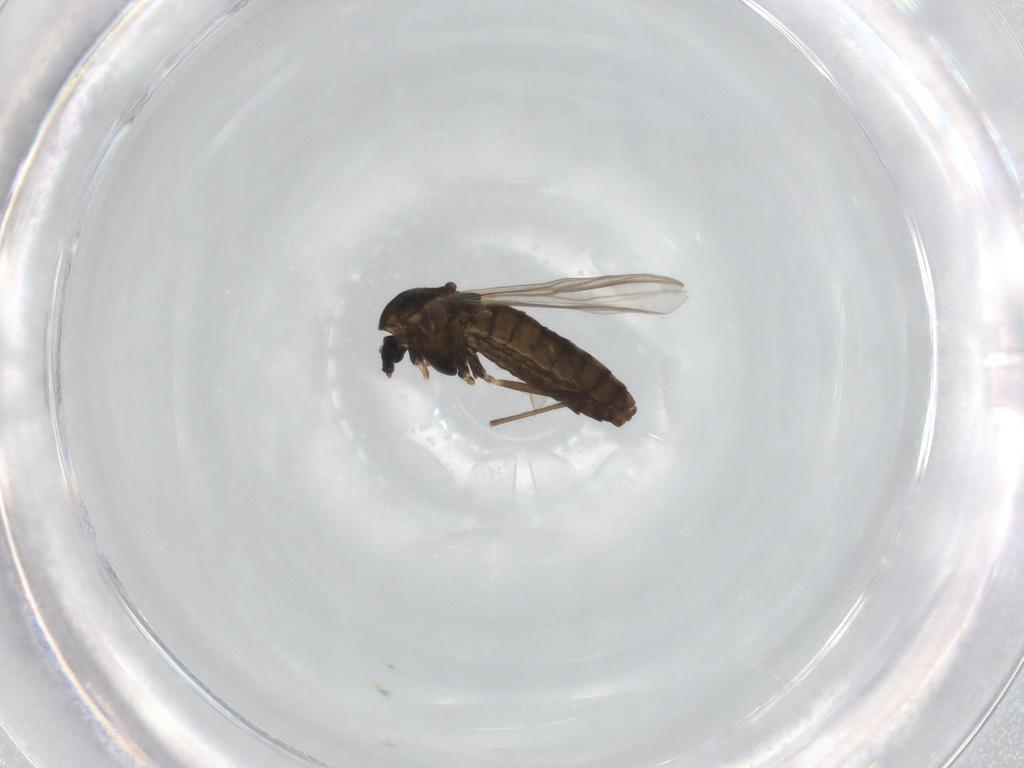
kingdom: Animalia
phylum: Arthropoda
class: Insecta
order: Diptera
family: Chironomidae
